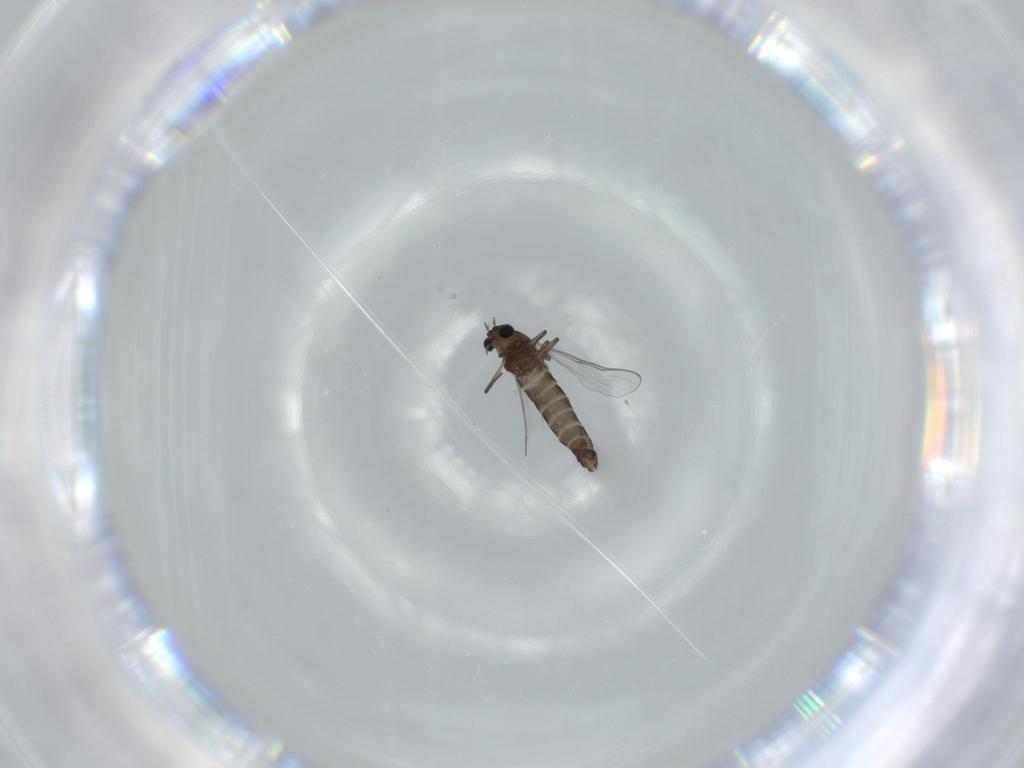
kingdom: Animalia
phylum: Arthropoda
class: Insecta
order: Diptera
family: Chironomidae
